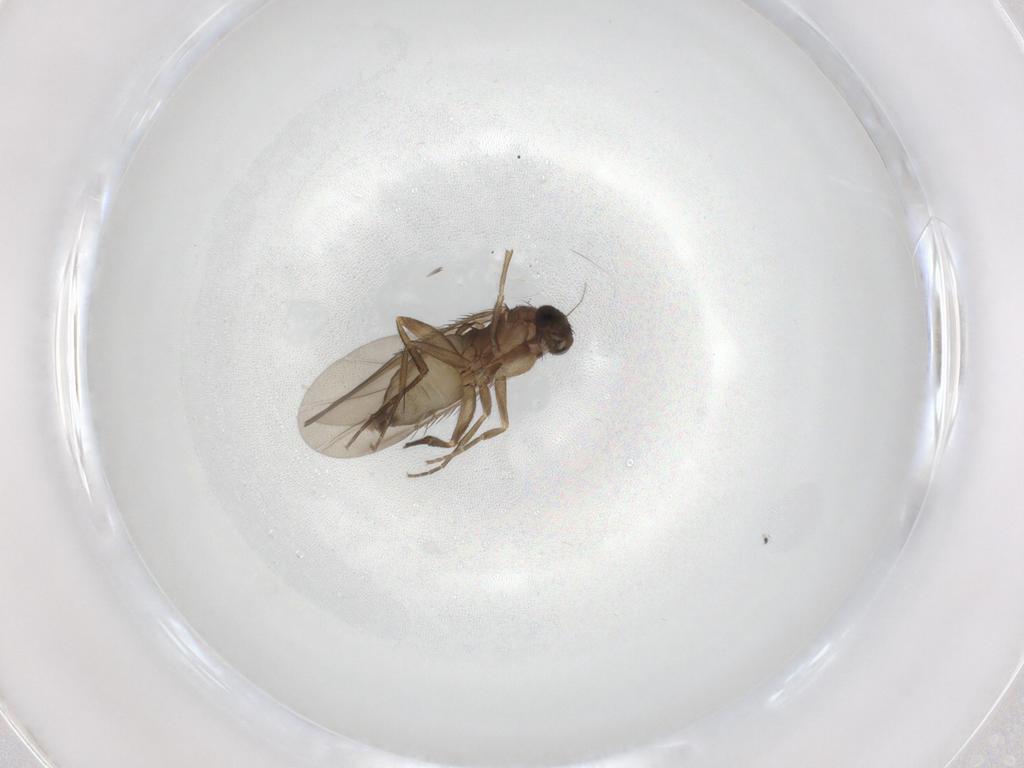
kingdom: Animalia
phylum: Arthropoda
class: Insecta
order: Diptera
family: Phoridae
